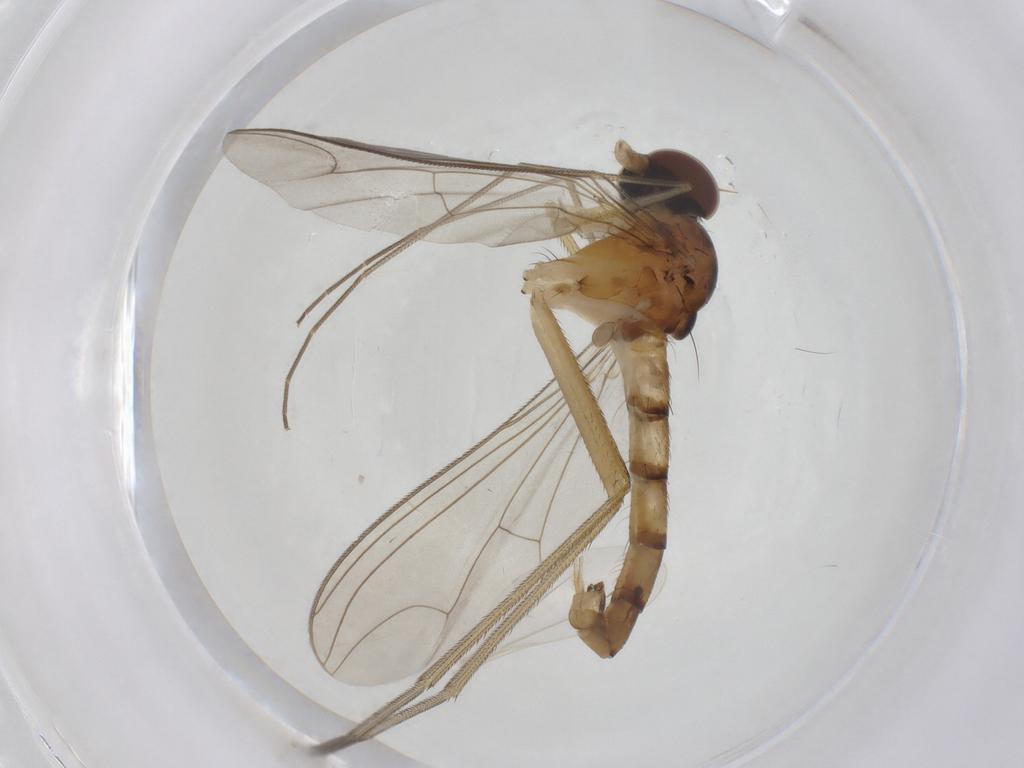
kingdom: Animalia
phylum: Arthropoda
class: Insecta
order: Diptera
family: Dolichopodidae
